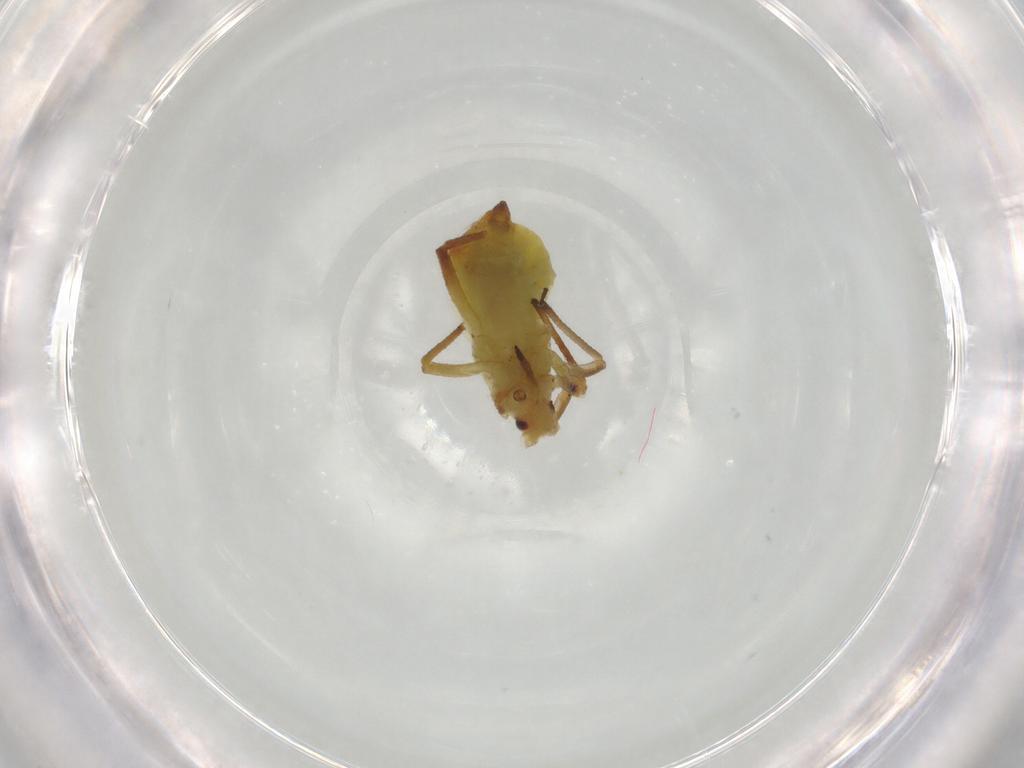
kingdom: Animalia
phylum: Arthropoda
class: Insecta
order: Hemiptera
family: Aphididae
